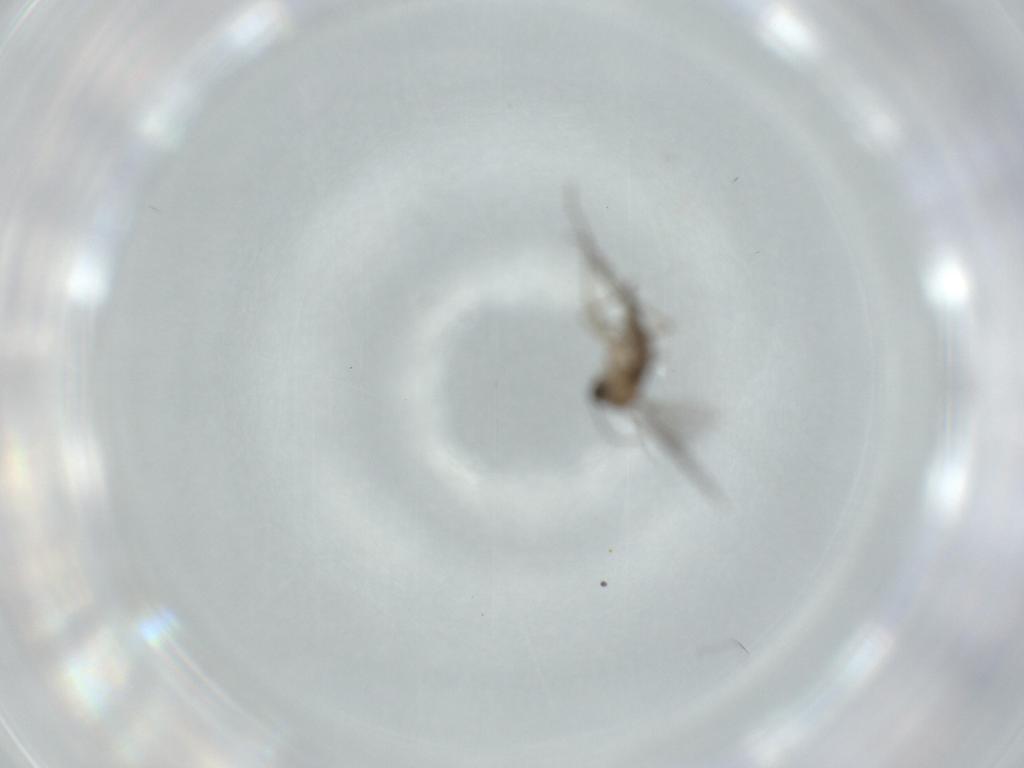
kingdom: Animalia
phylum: Arthropoda
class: Insecta
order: Diptera
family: Sciaridae
